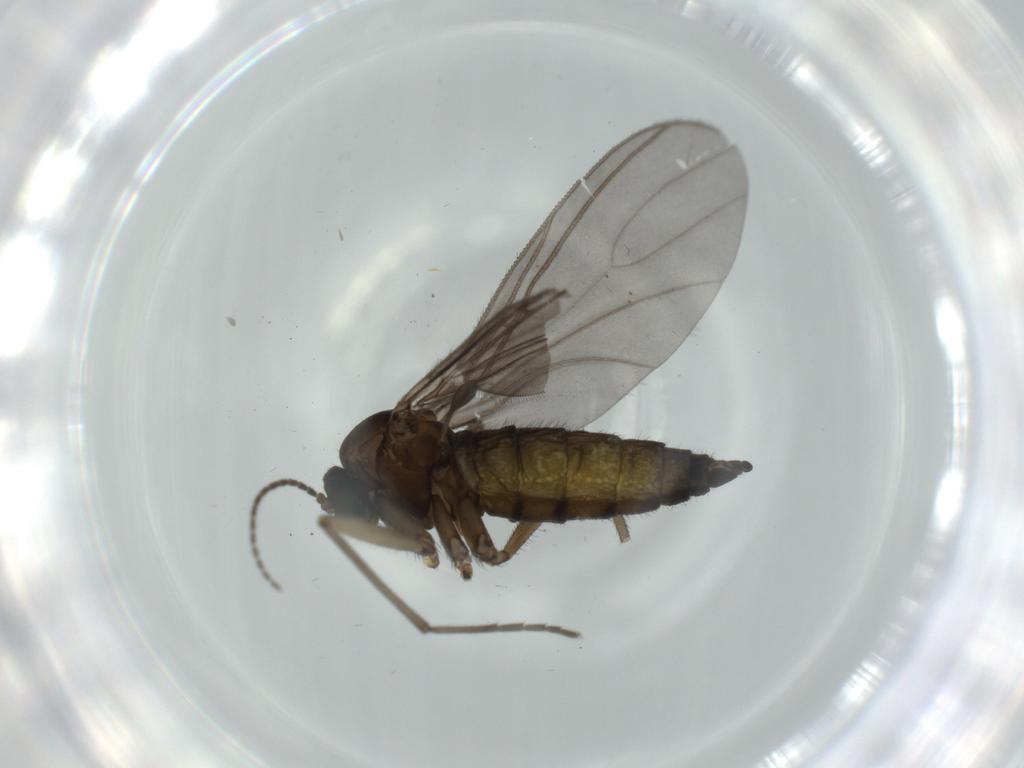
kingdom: Animalia
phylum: Arthropoda
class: Insecta
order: Diptera
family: Sciaridae
